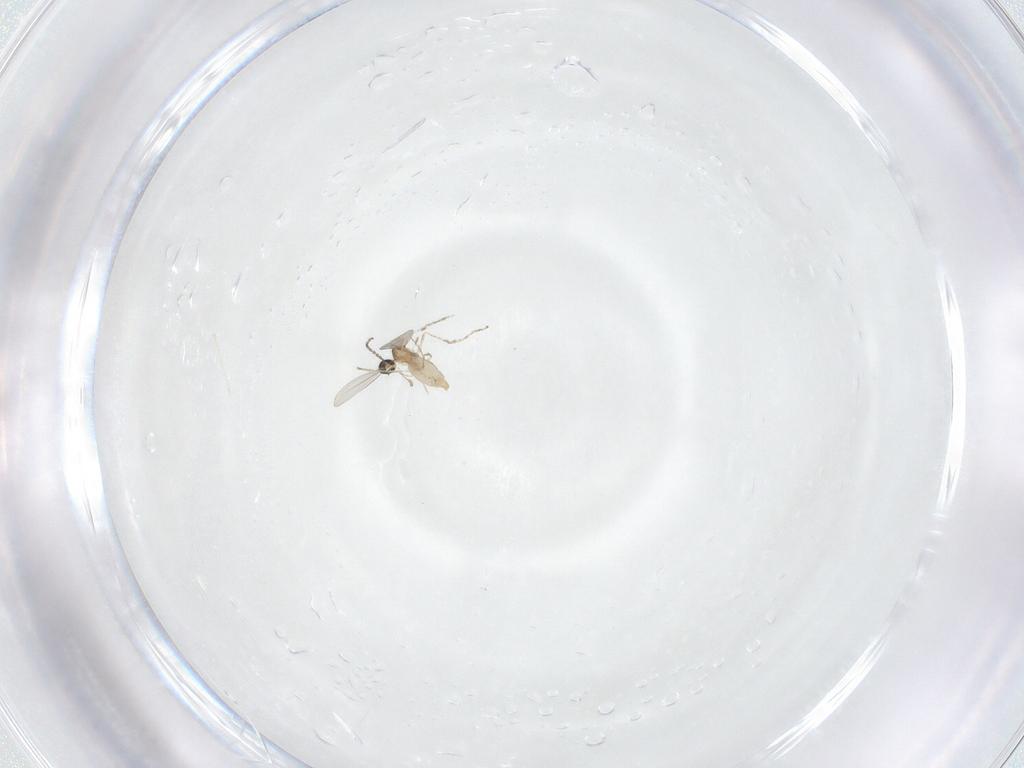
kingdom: Animalia
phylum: Arthropoda
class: Insecta
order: Diptera
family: Cecidomyiidae
